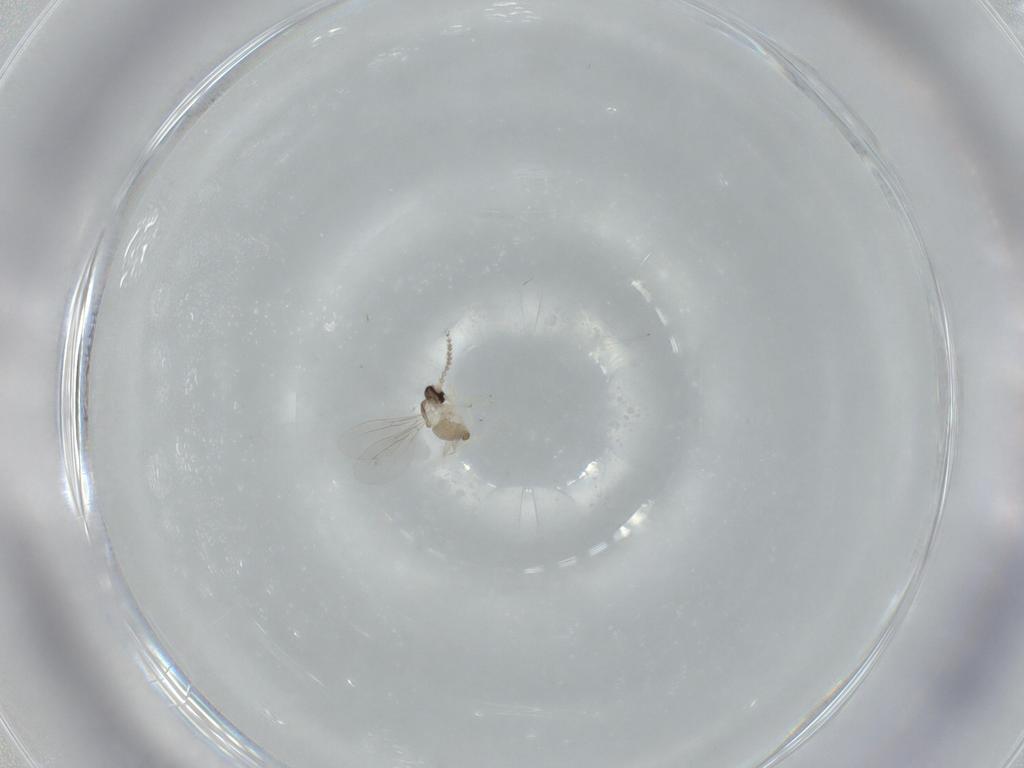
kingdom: Animalia
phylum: Arthropoda
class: Insecta
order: Diptera
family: Cecidomyiidae
